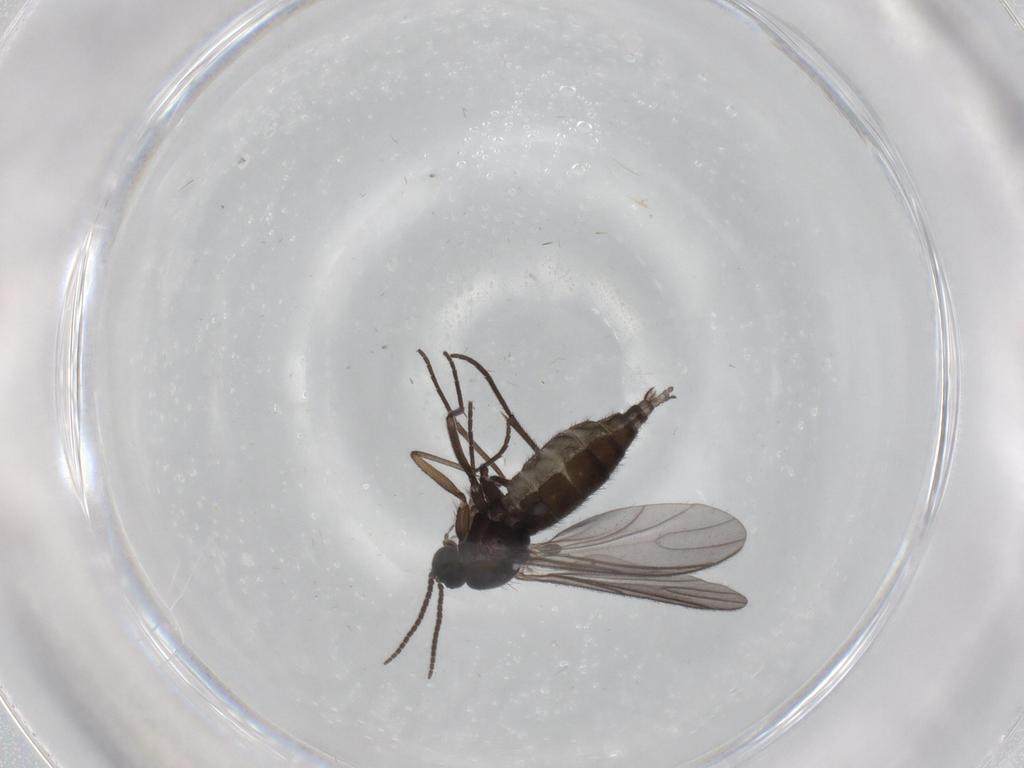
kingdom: Animalia
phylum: Arthropoda
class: Insecta
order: Diptera
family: Sciaridae
